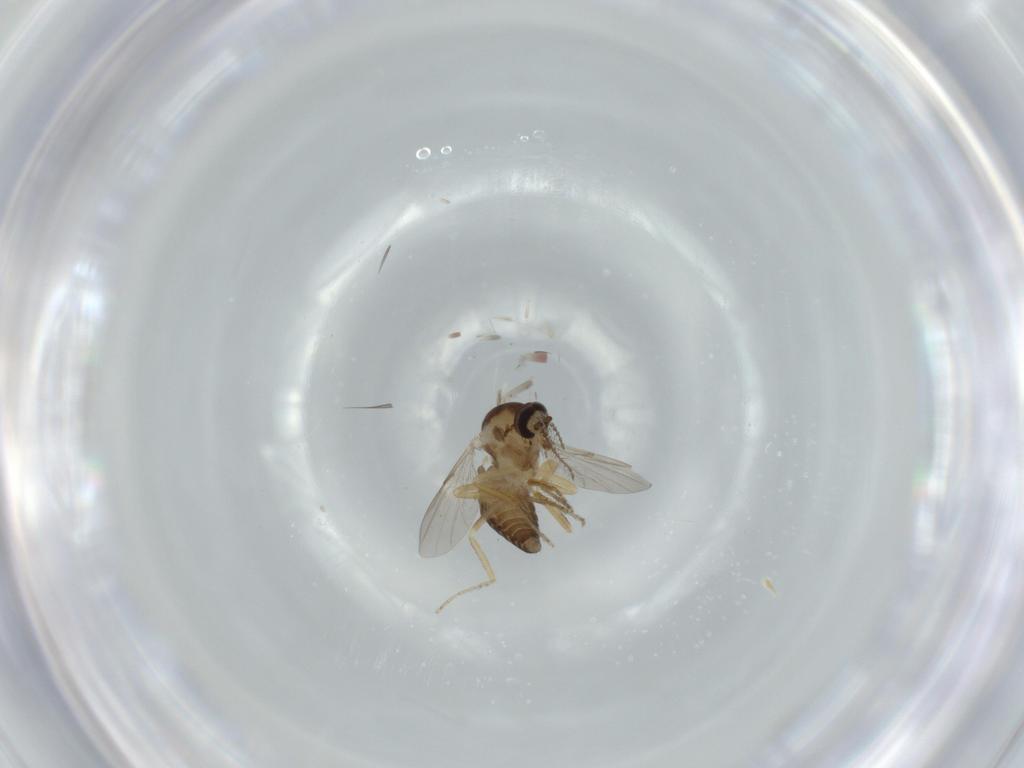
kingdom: Animalia
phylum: Arthropoda
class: Insecta
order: Diptera
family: Ceratopogonidae
